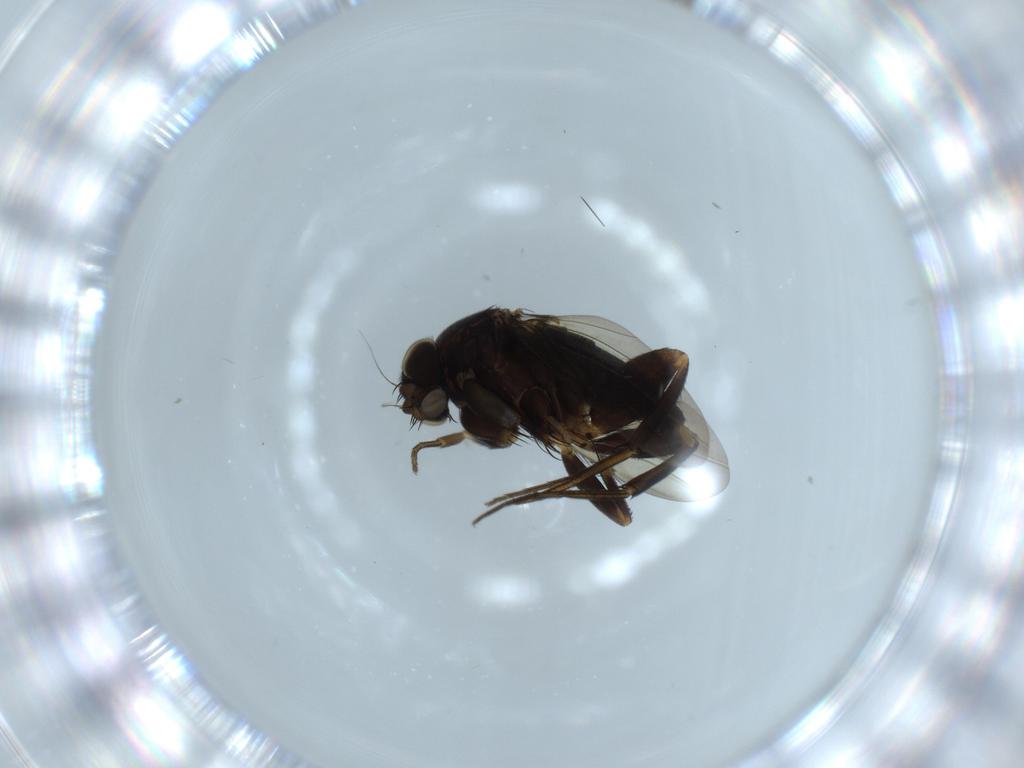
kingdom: Animalia
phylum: Arthropoda
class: Insecta
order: Diptera
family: Phoridae
